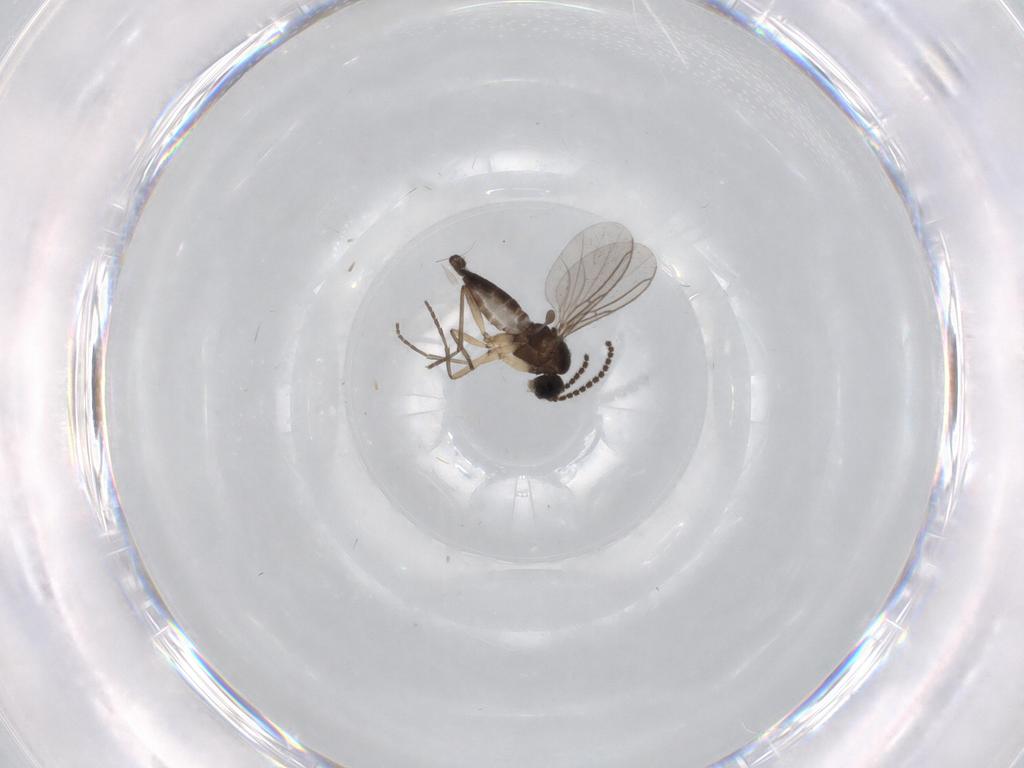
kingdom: Animalia
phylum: Arthropoda
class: Insecta
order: Diptera
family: Sciaridae
